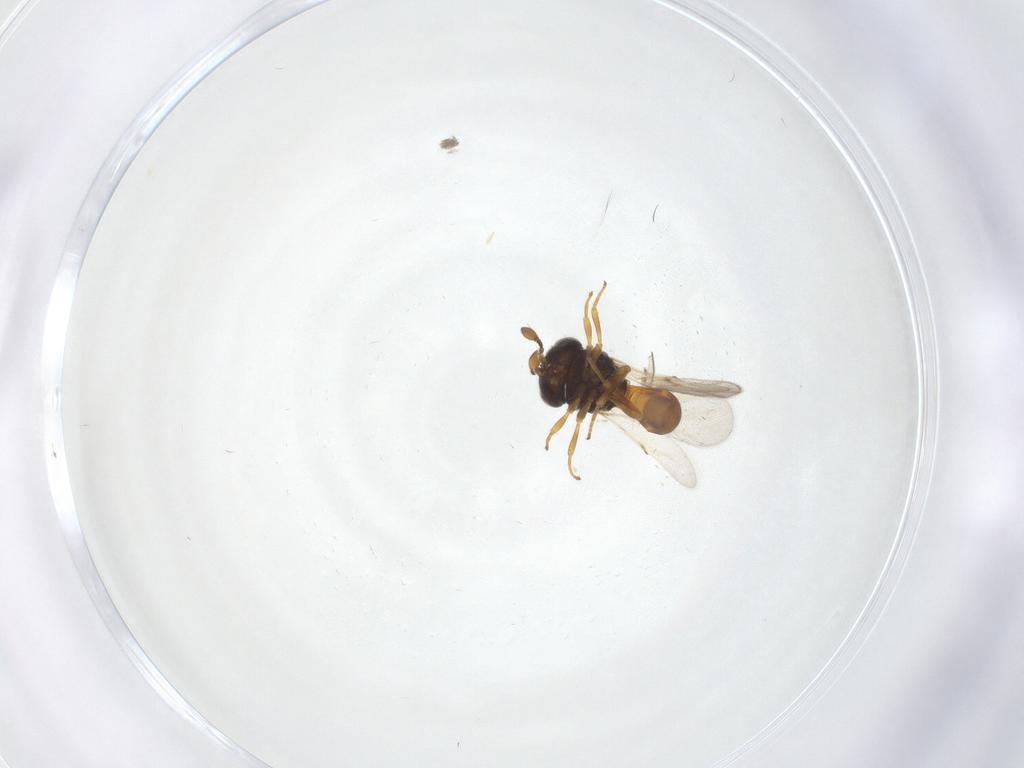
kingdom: Animalia
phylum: Arthropoda
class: Insecta
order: Hymenoptera
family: Scelionidae
